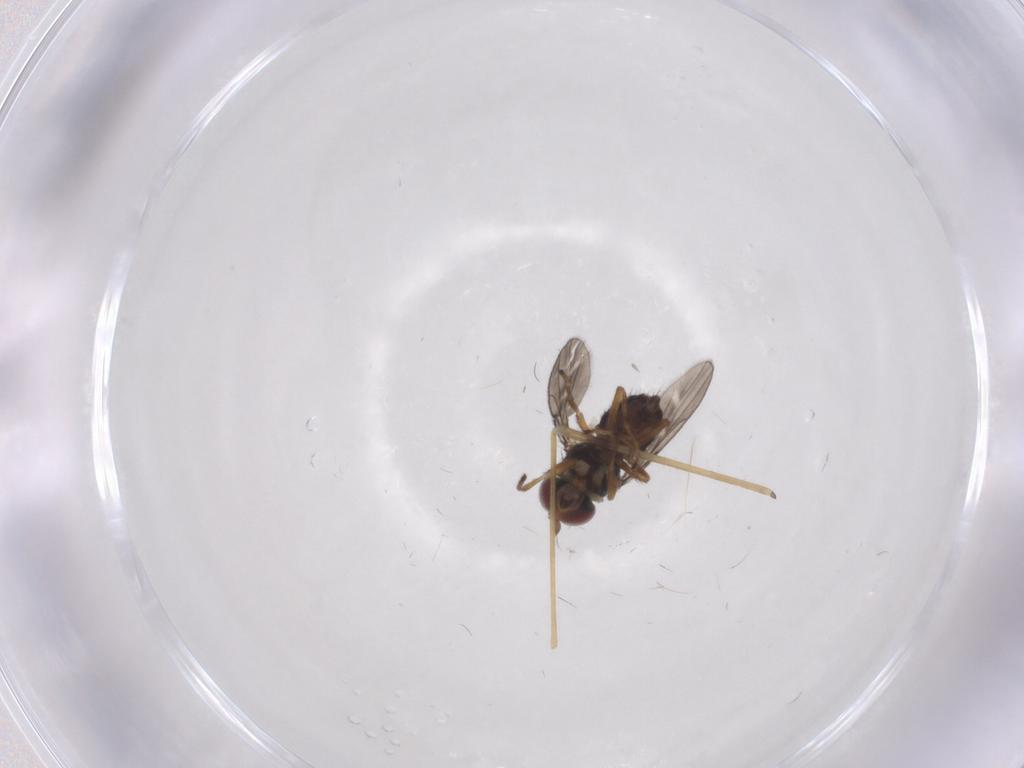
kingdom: Animalia
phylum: Arthropoda
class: Insecta
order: Diptera
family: Ephydridae
